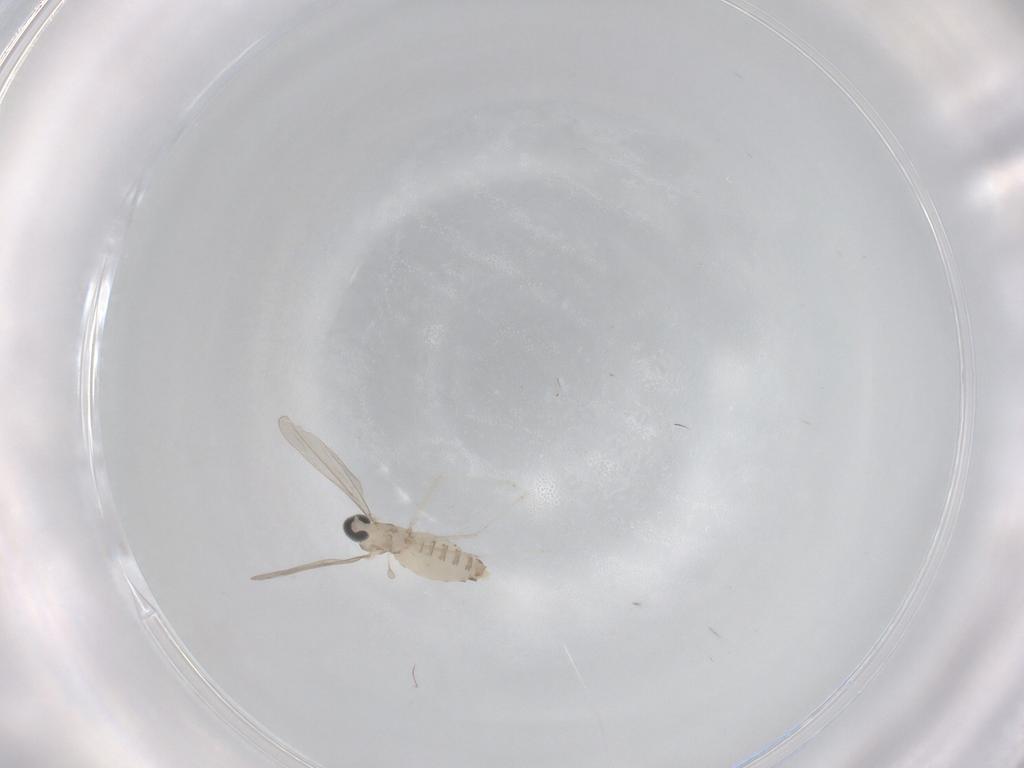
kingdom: Animalia
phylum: Arthropoda
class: Insecta
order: Diptera
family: Cecidomyiidae
